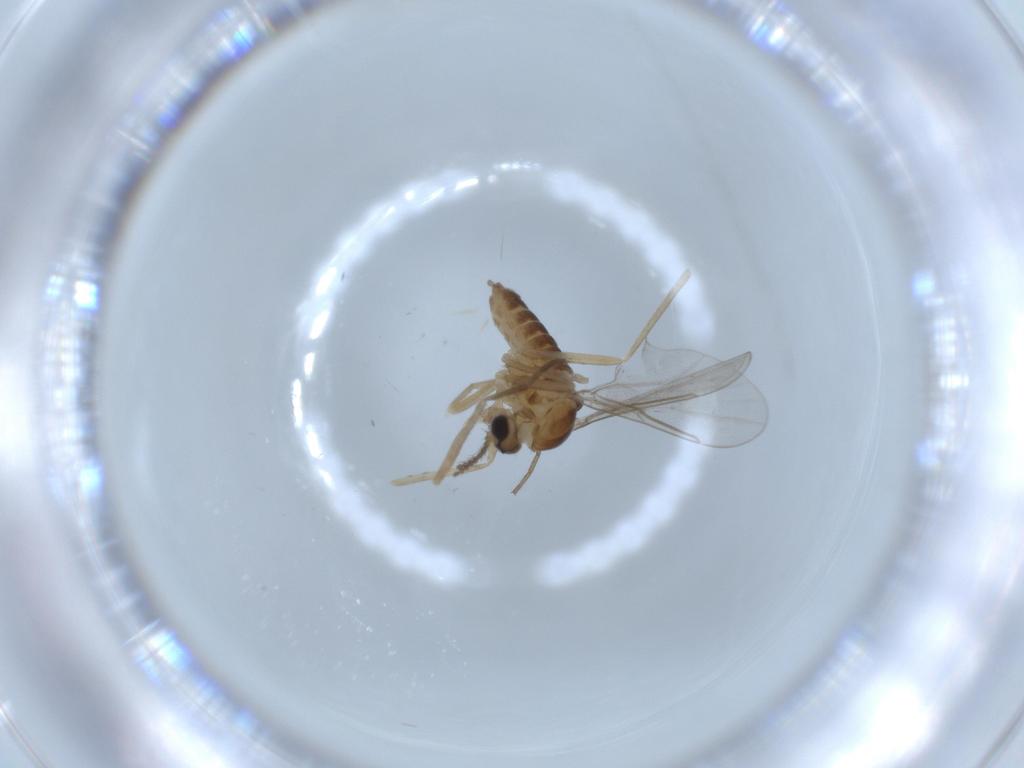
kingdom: Animalia
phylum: Arthropoda
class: Insecta
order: Diptera
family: Cecidomyiidae
